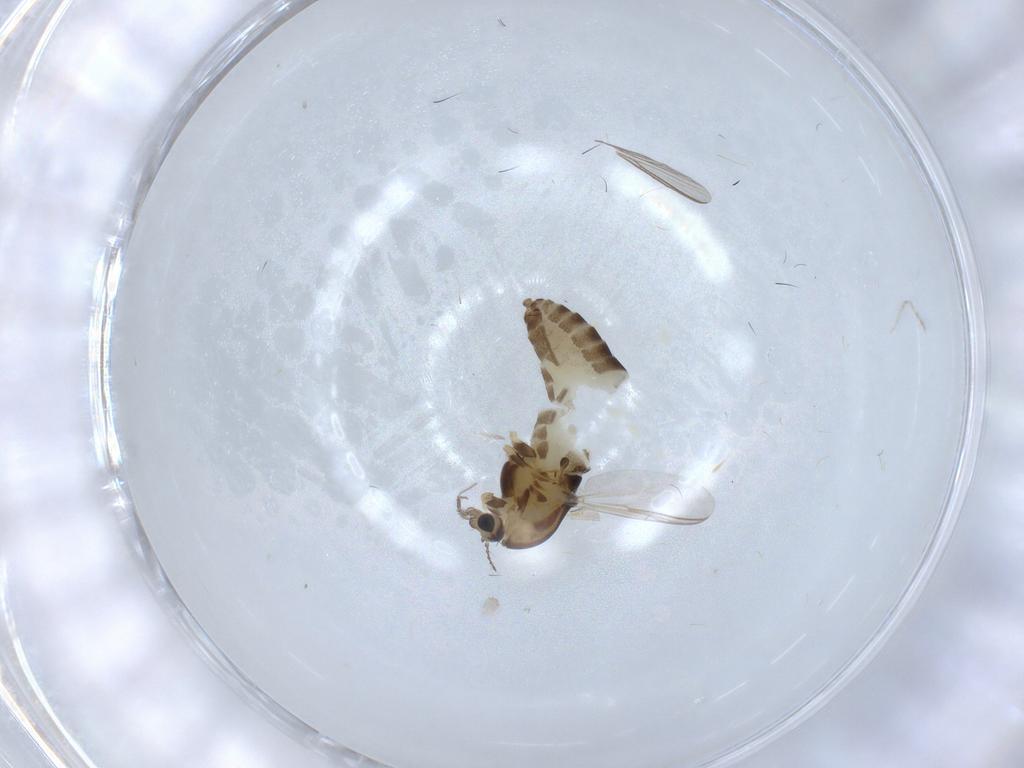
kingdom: Animalia
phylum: Arthropoda
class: Insecta
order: Diptera
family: Chironomidae
